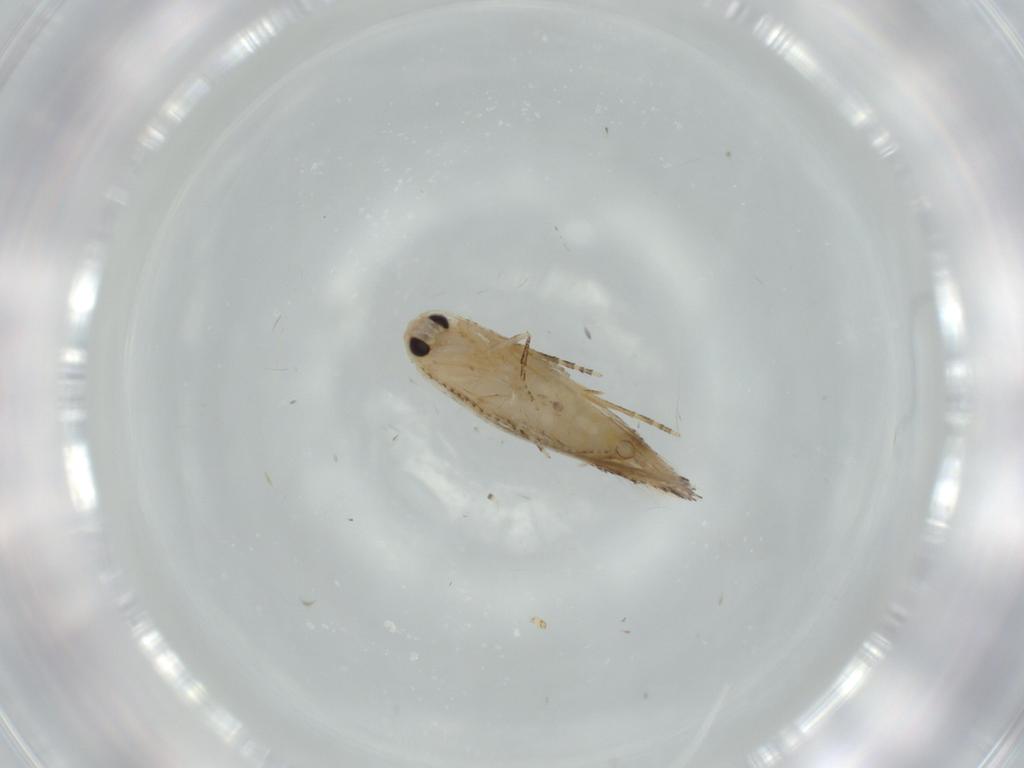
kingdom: Animalia
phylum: Arthropoda
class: Insecta
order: Lepidoptera
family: Bucculatricidae
